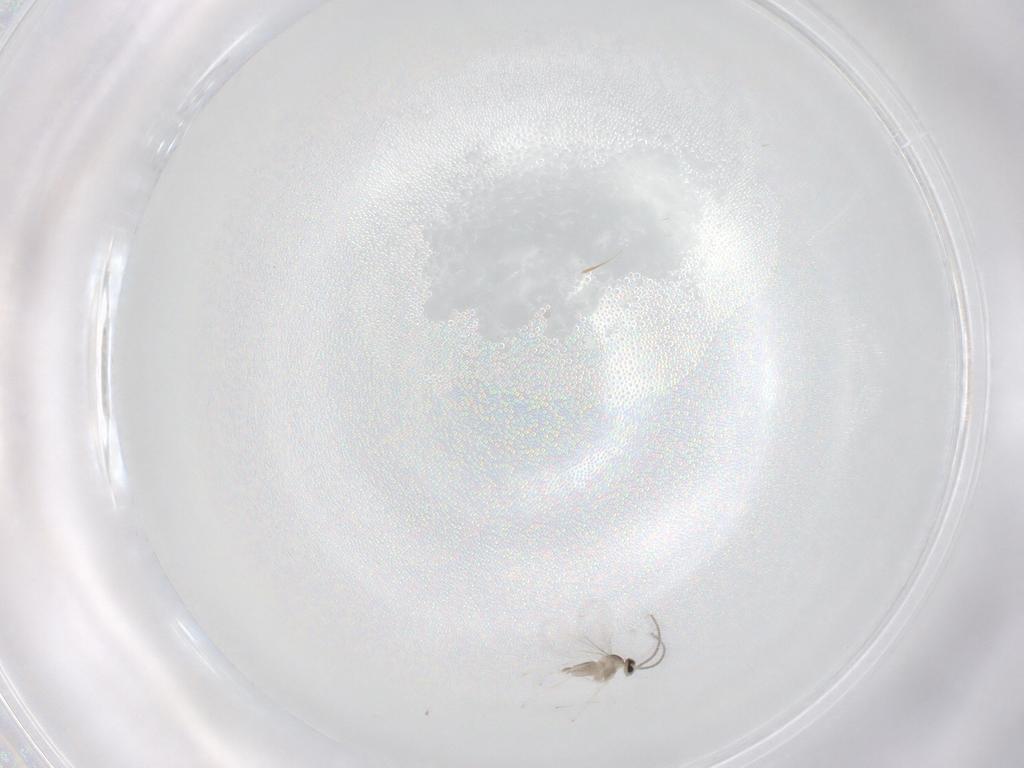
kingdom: Animalia
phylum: Arthropoda
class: Insecta
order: Diptera
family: Cecidomyiidae
